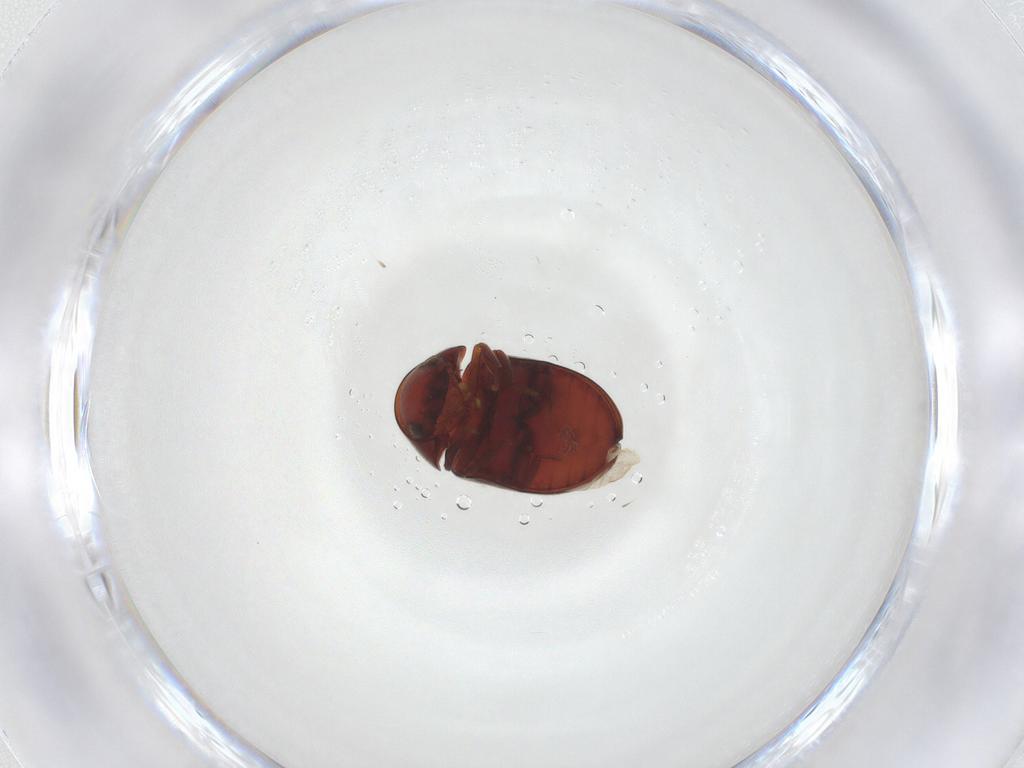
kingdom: Animalia
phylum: Arthropoda
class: Insecta
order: Coleoptera
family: Ptinidae
